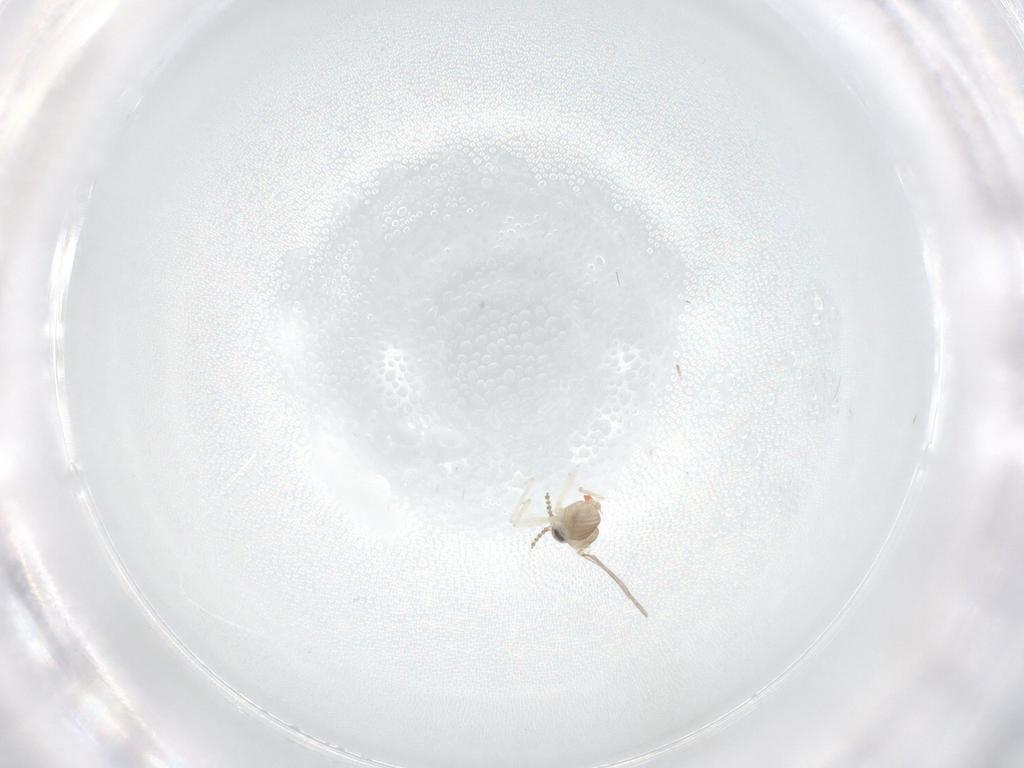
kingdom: Animalia
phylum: Arthropoda
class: Insecta
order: Diptera
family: Cecidomyiidae
